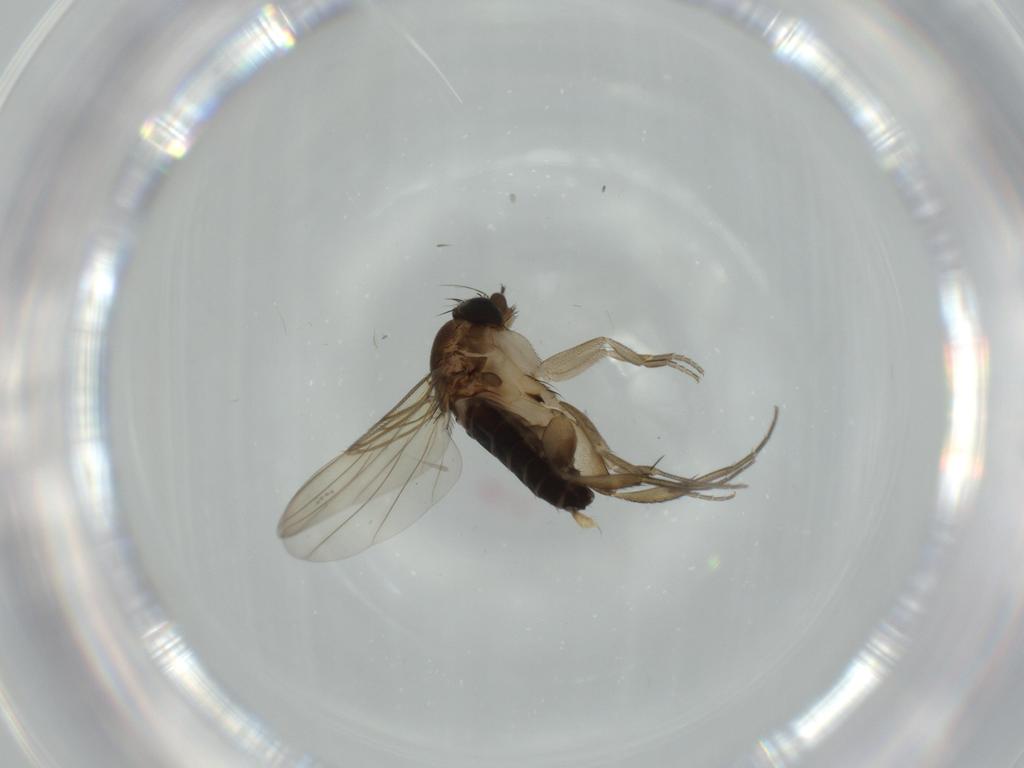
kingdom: Animalia
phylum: Arthropoda
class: Insecta
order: Diptera
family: Milichiidae
